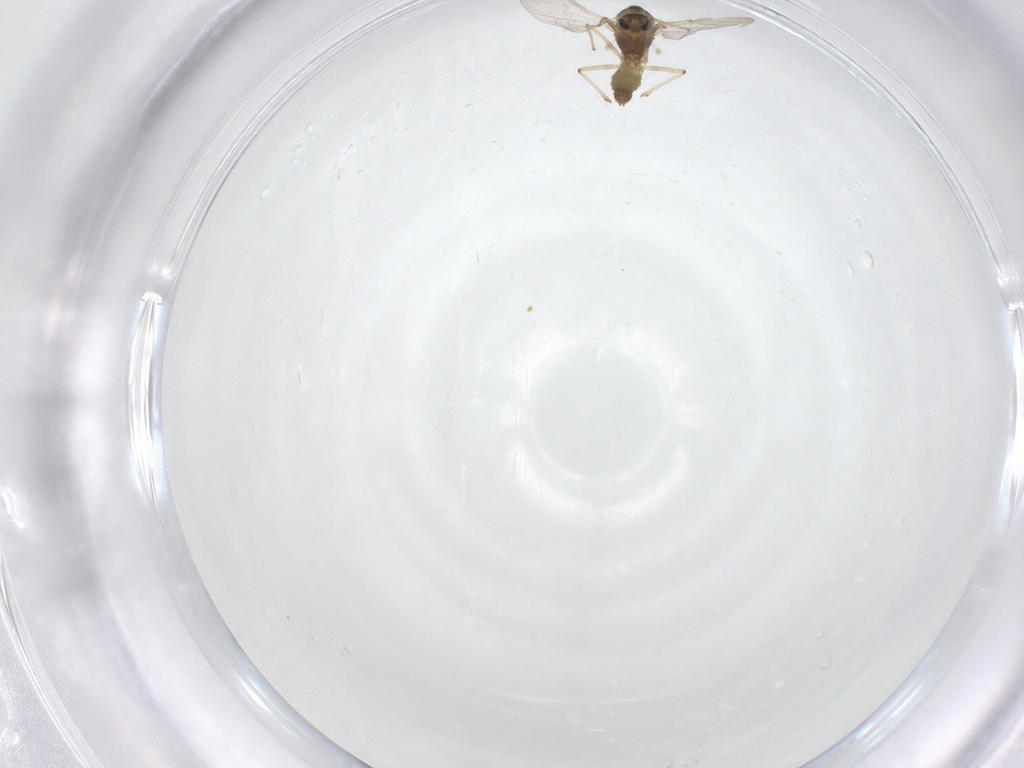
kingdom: Animalia
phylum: Arthropoda
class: Insecta
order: Diptera
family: Chironomidae
